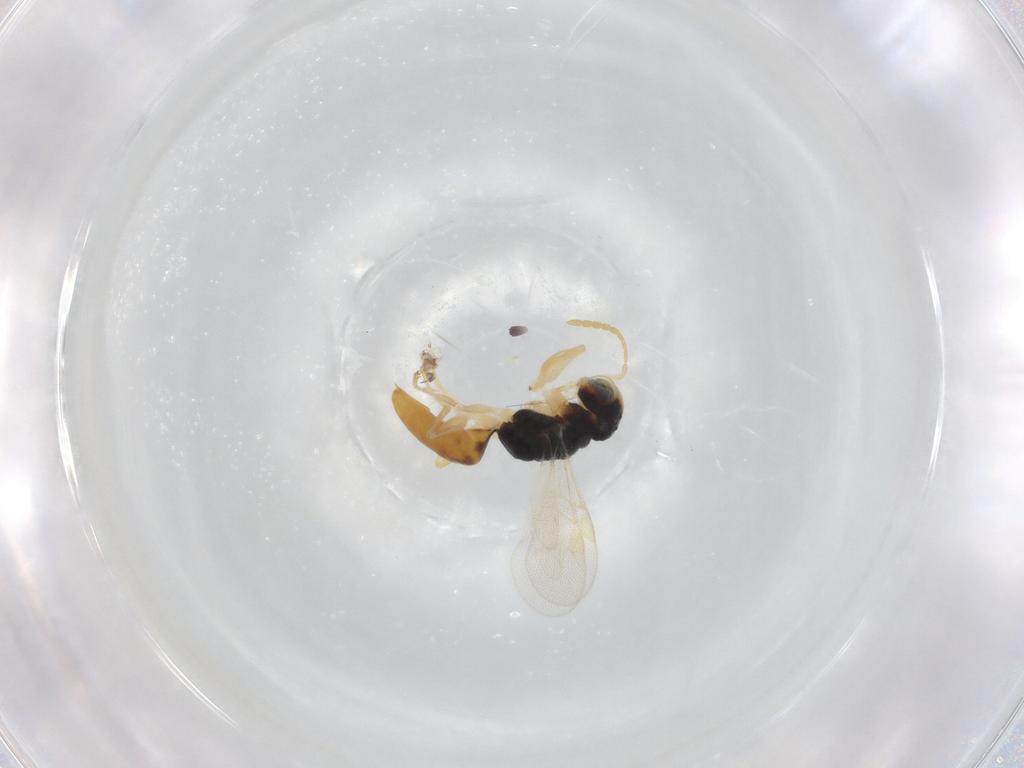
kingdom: Animalia
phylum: Arthropoda
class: Insecta
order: Hymenoptera
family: Dryinidae
